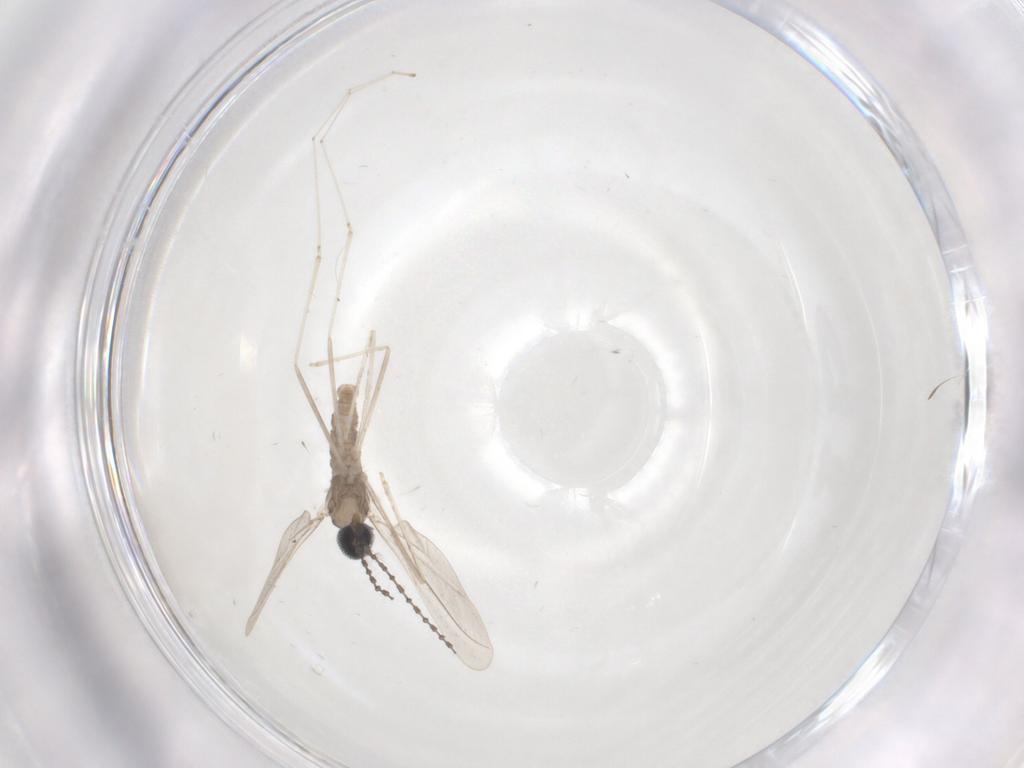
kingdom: Animalia
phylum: Arthropoda
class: Insecta
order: Diptera
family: Cecidomyiidae
